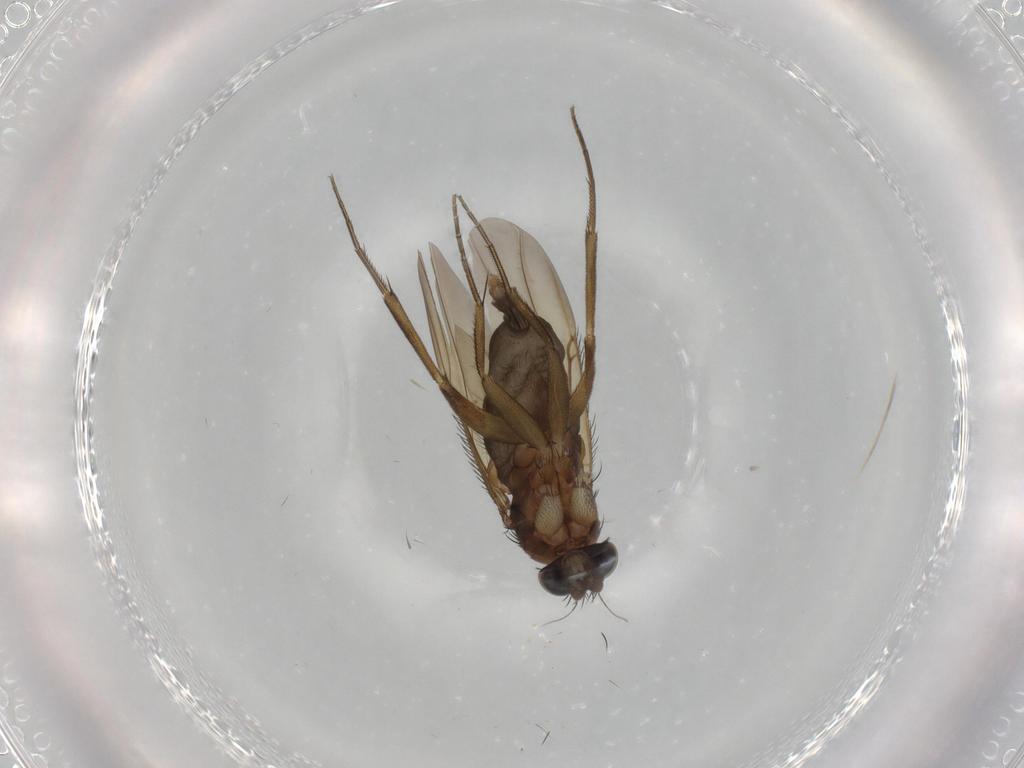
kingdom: Animalia
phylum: Arthropoda
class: Insecta
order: Diptera
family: Phoridae
